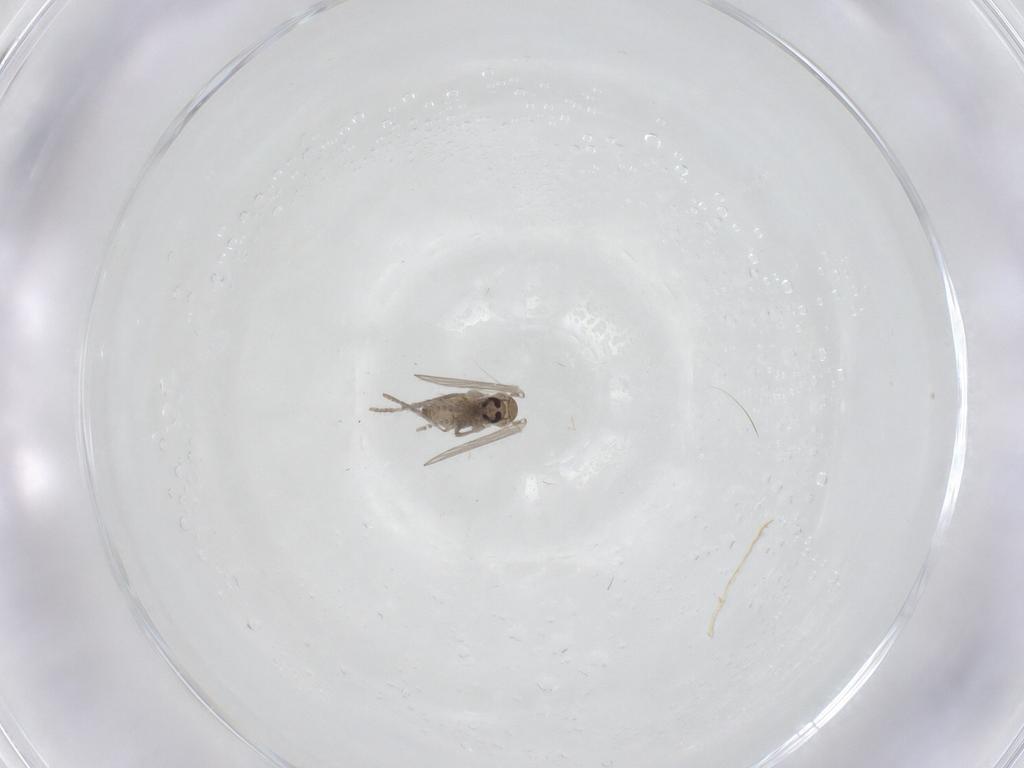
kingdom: Animalia
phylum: Arthropoda
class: Insecta
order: Diptera
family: Psychodidae
